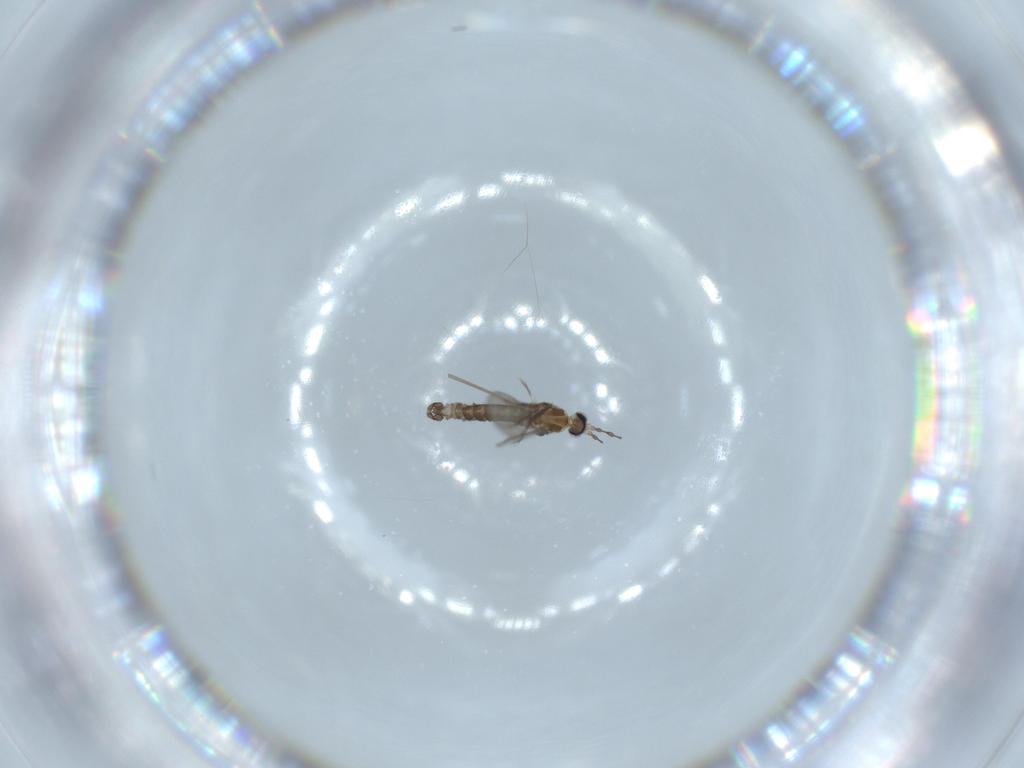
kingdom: Animalia
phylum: Arthropoda
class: Insecta
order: Diptera
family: Cecidomyiidae
